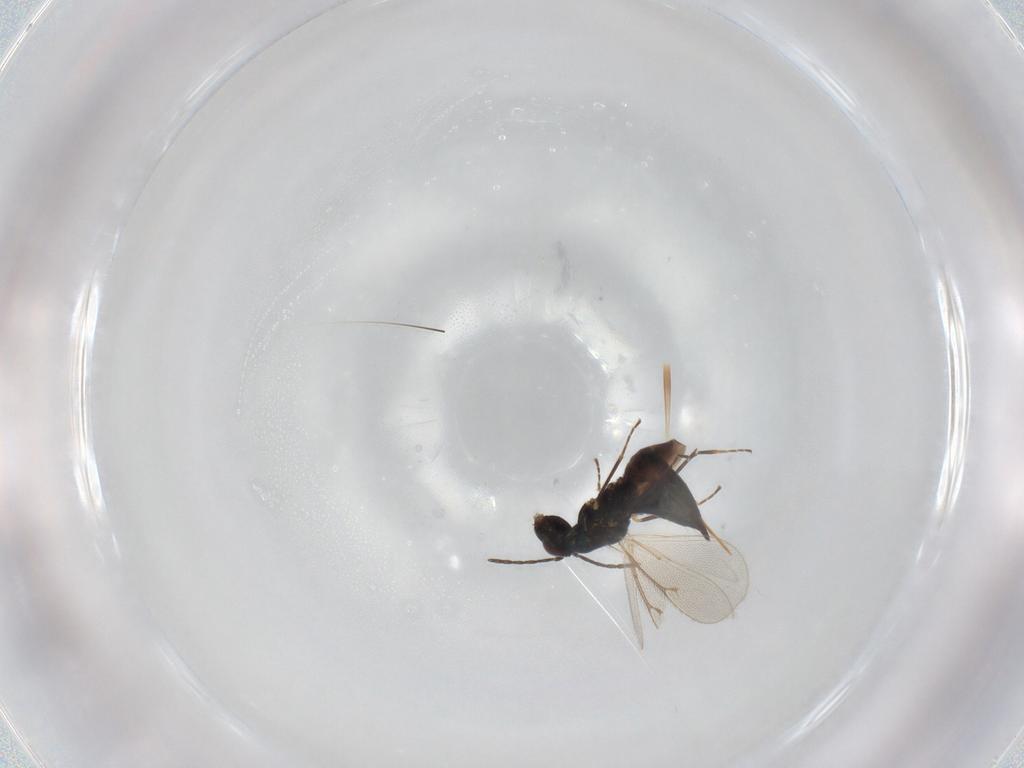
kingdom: Animalia
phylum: Arthropoda
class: Insecta
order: Hymenoptera
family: Eulophidae
